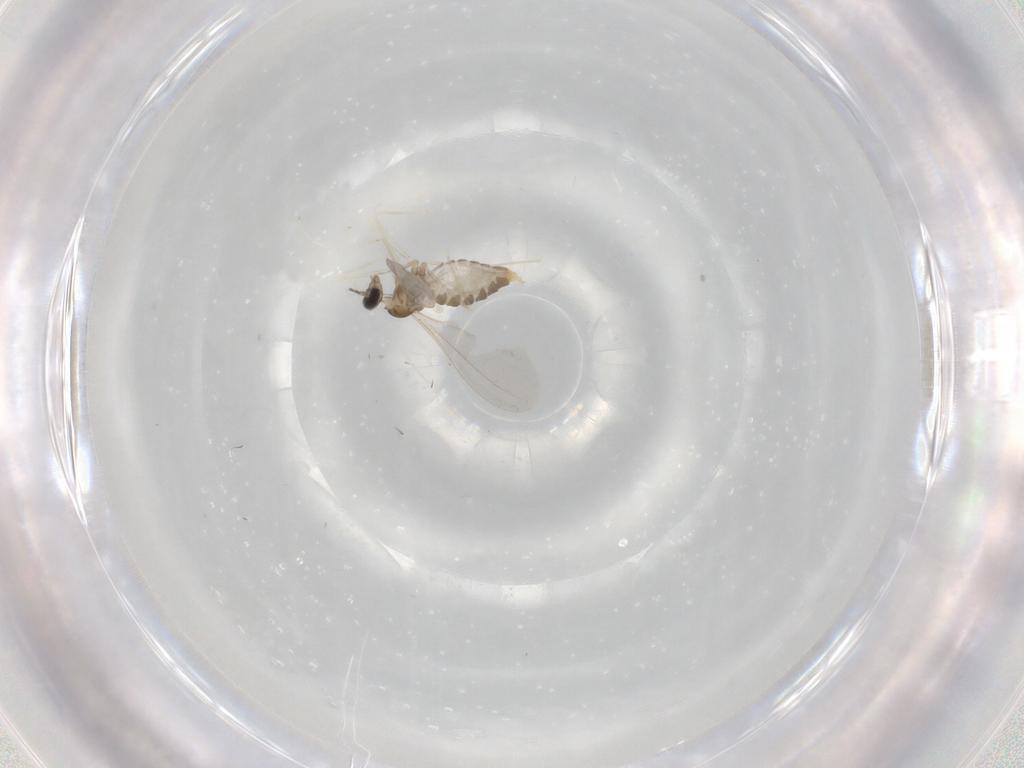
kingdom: Animalia
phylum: Arthropoda
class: Insecta
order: Diptera
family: Cecidomyiidae
